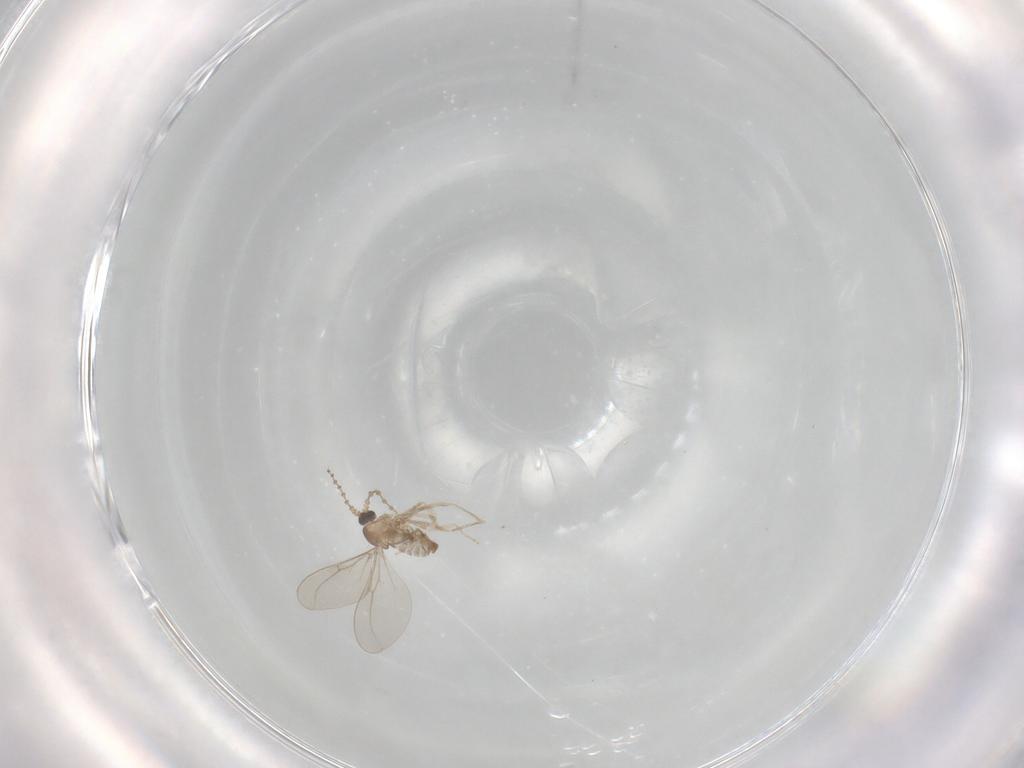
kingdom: Animalia
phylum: Arthropoda
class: Insecta
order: Diptera
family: Cecidomyiidae
